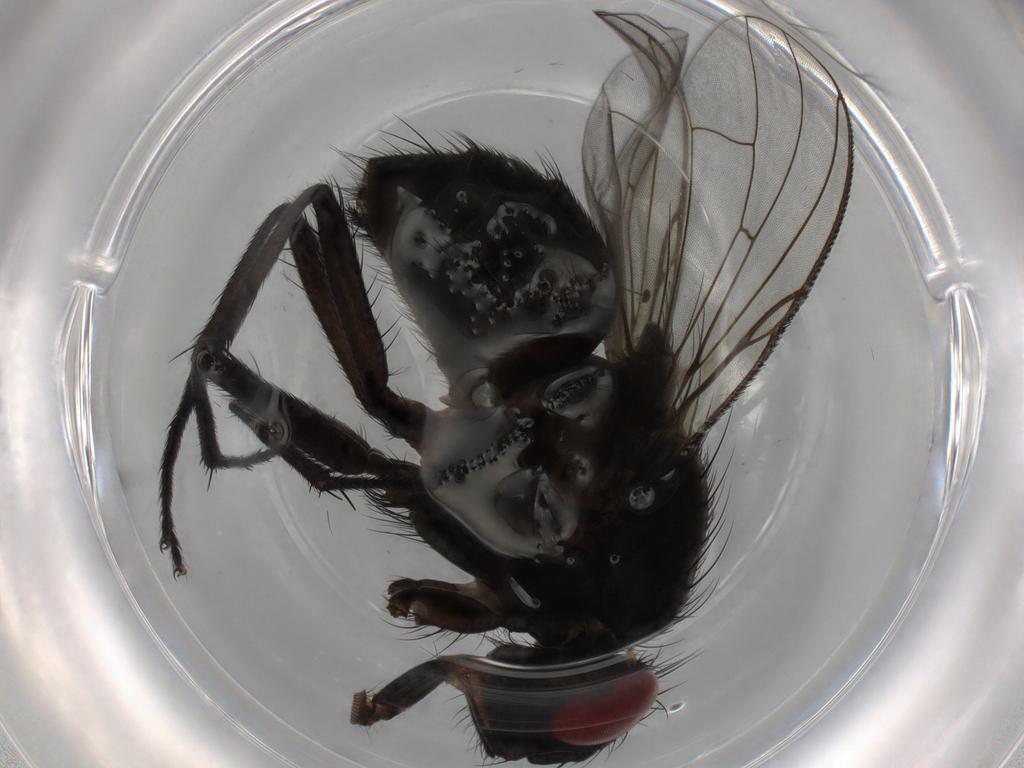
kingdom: Animalia
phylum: Arthropoda
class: Insecta
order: Diptera
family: Muscidae
